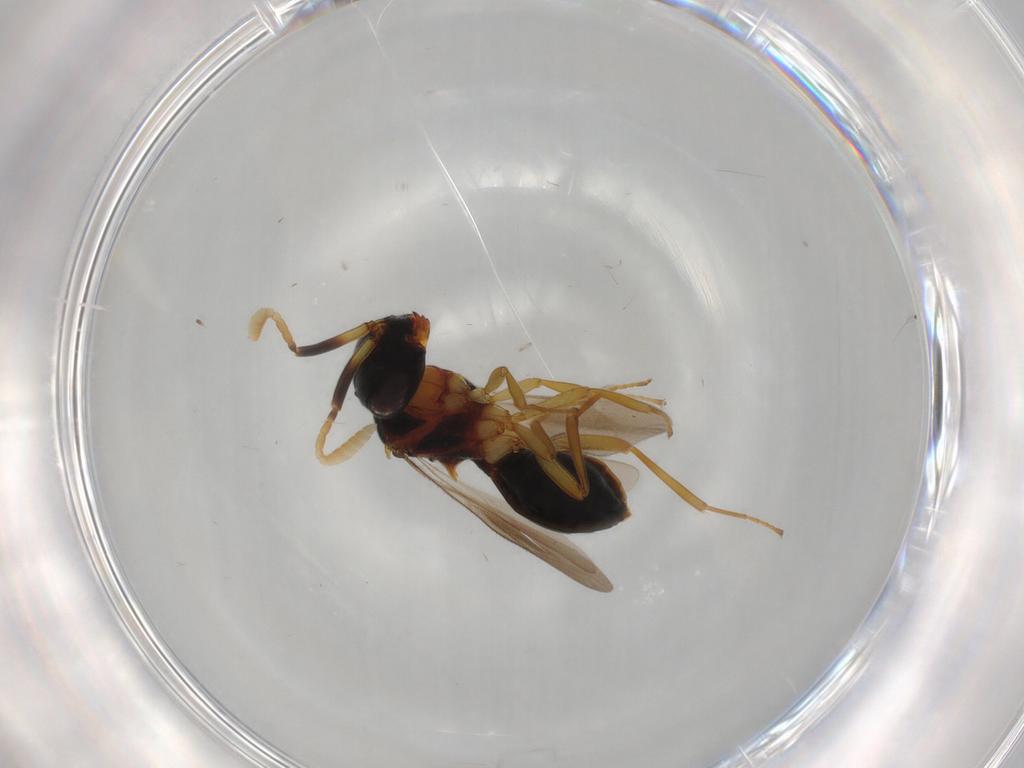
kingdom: Animalia
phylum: Arthropoda
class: Insecta
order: Hymenoptera
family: Scelionidae
